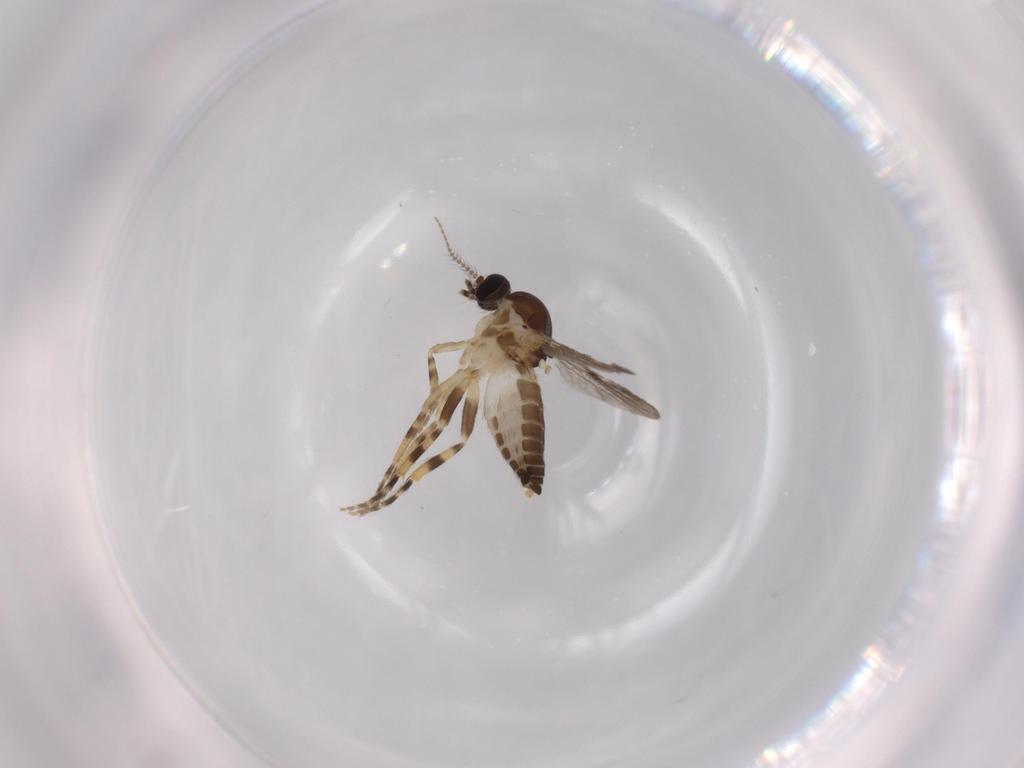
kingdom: Animalia
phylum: Arthropoda
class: Insecta
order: Diptera
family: Ceratopogonidae
